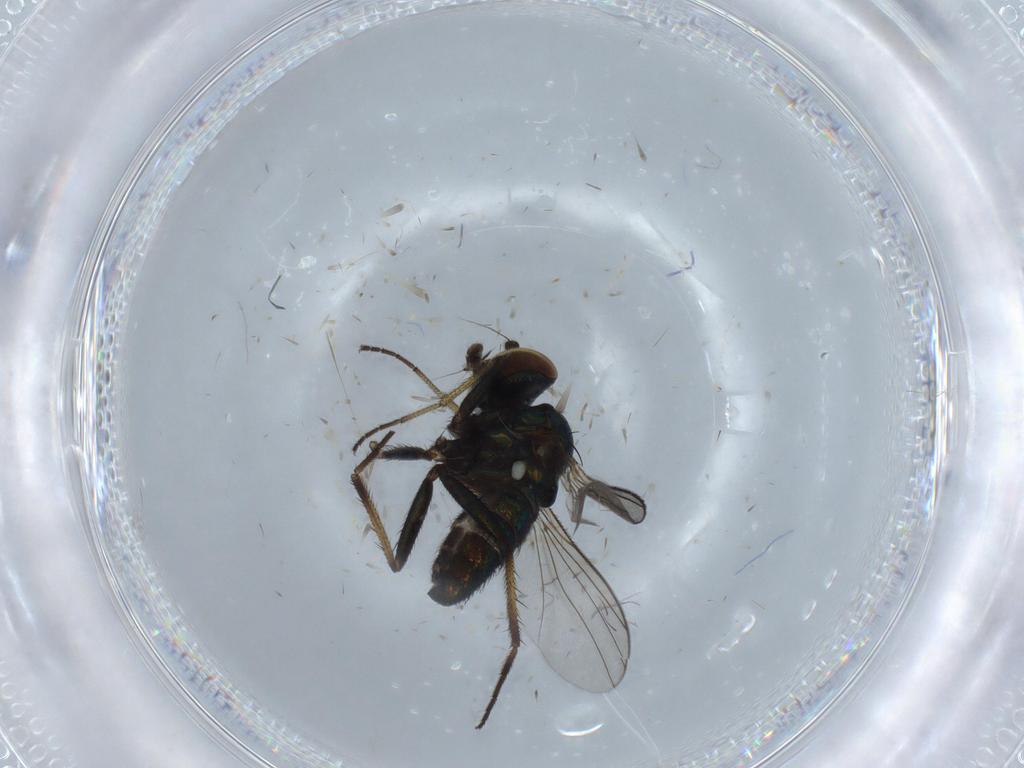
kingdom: Animalia
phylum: Arthropoda
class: Insecta
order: Diptera
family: Dolichopodidae
